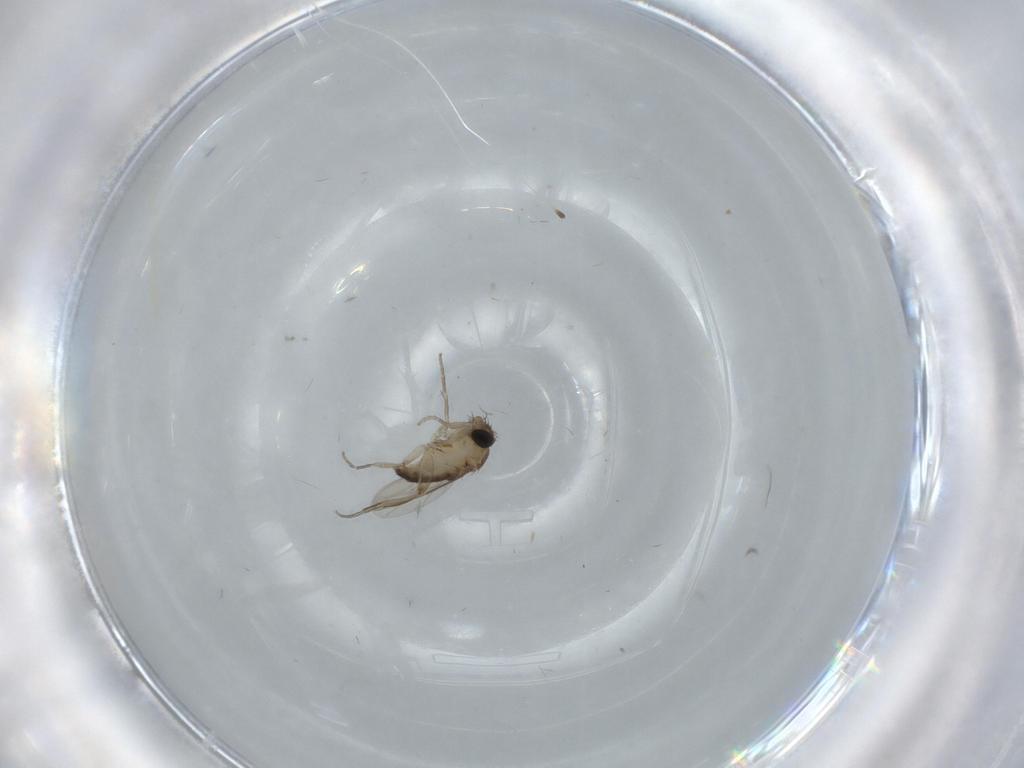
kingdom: Animalia
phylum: Arthropoda
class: Insecta
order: Diptera
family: Phoridae
